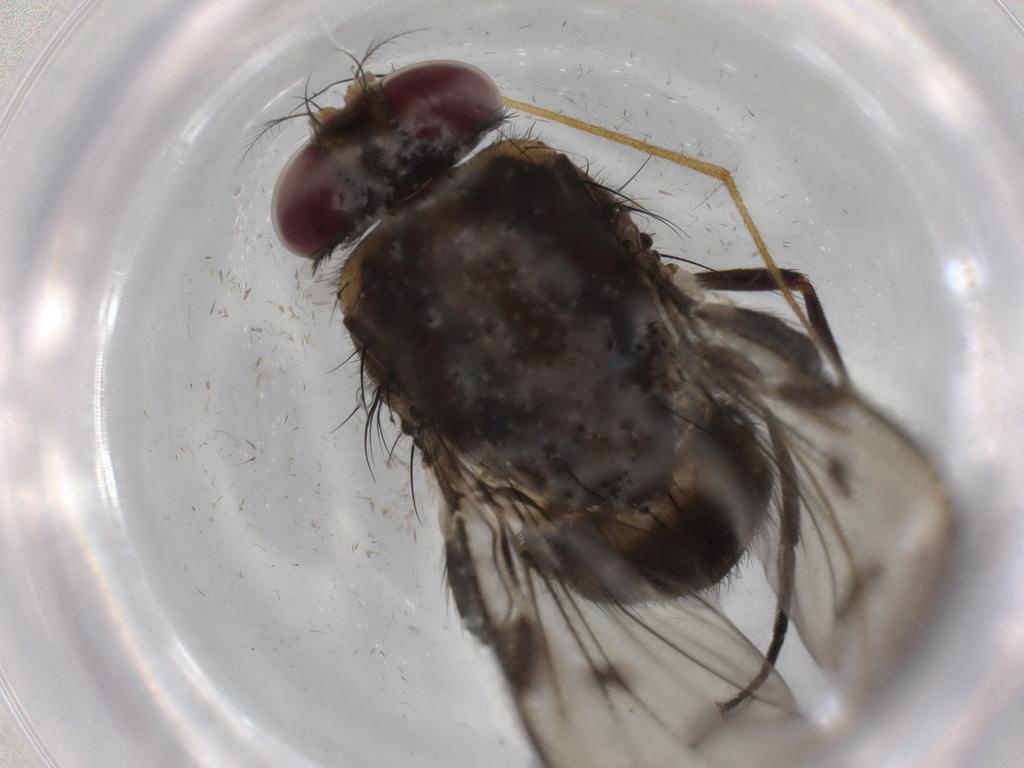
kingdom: Animalia
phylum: Arthropoda
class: Insecta
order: Diptera
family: Muscidae
